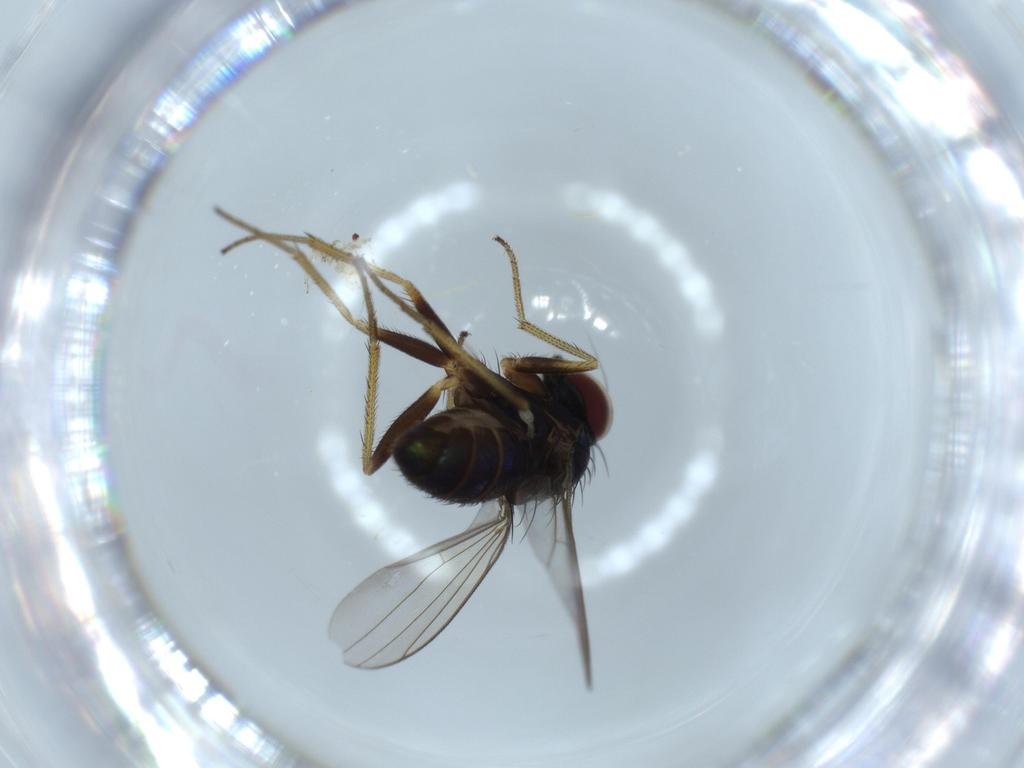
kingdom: Animalia
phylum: Arthropoda
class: Insecta
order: Diptera
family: Dolichopodidae
